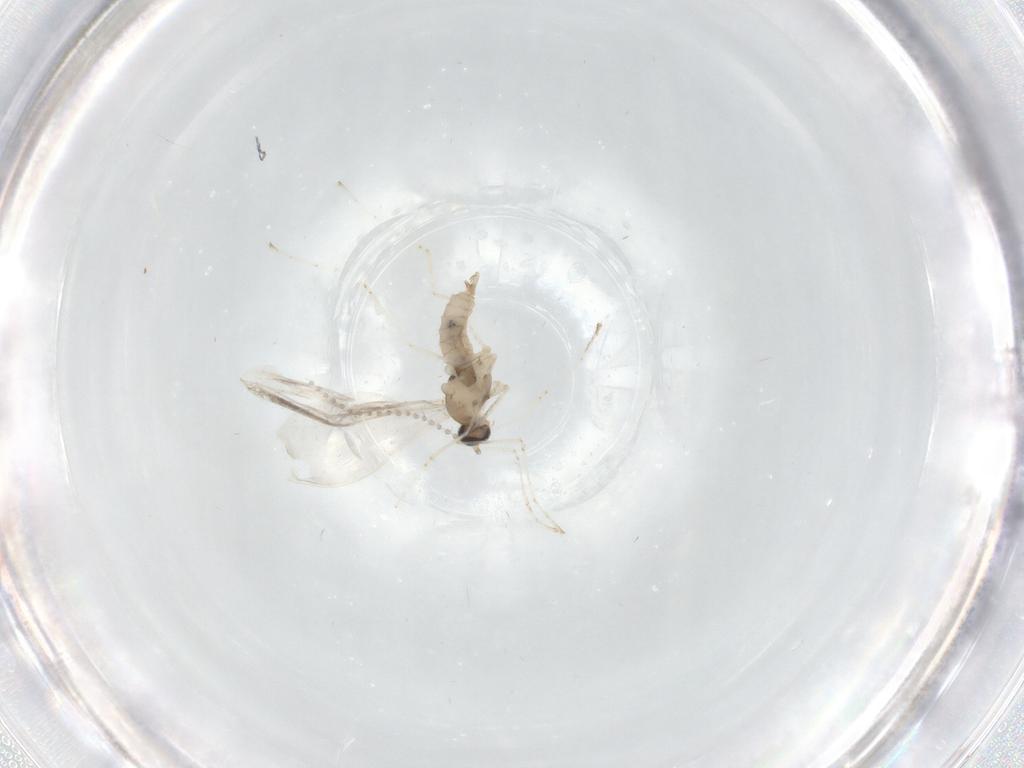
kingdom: Animalia
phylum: Arthropoda
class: Insecta
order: Diptera
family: Cecidomyiidae
